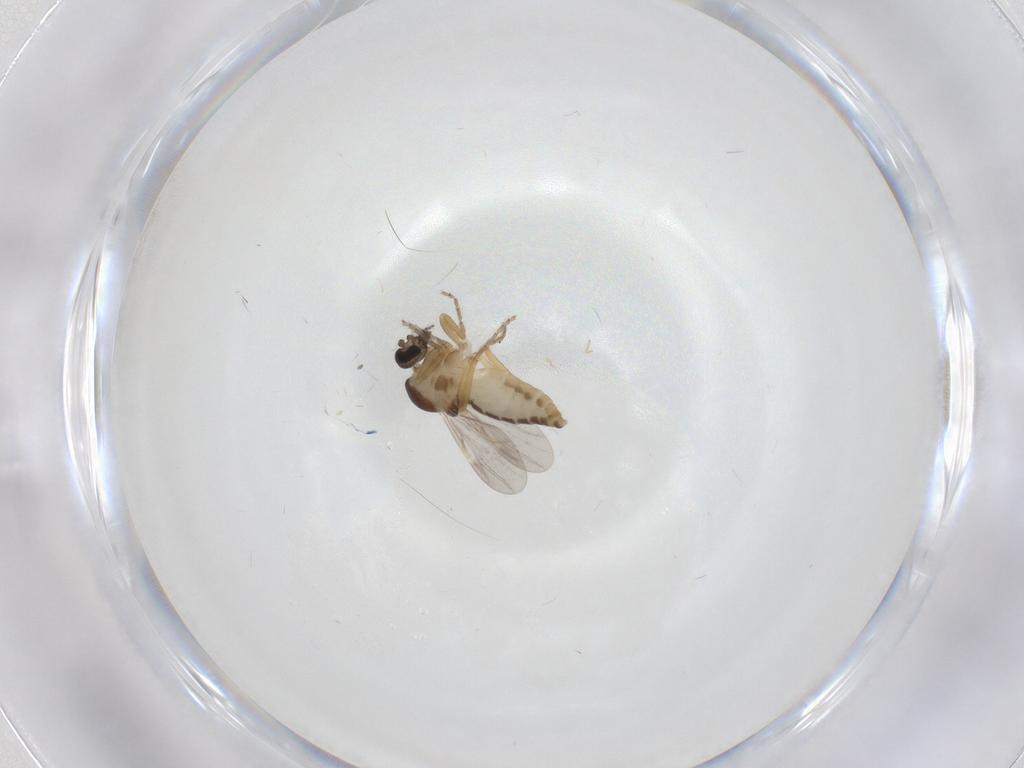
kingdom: Animalia
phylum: Arthropoda
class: Insecta
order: Diptera
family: Ceratopogonidae
